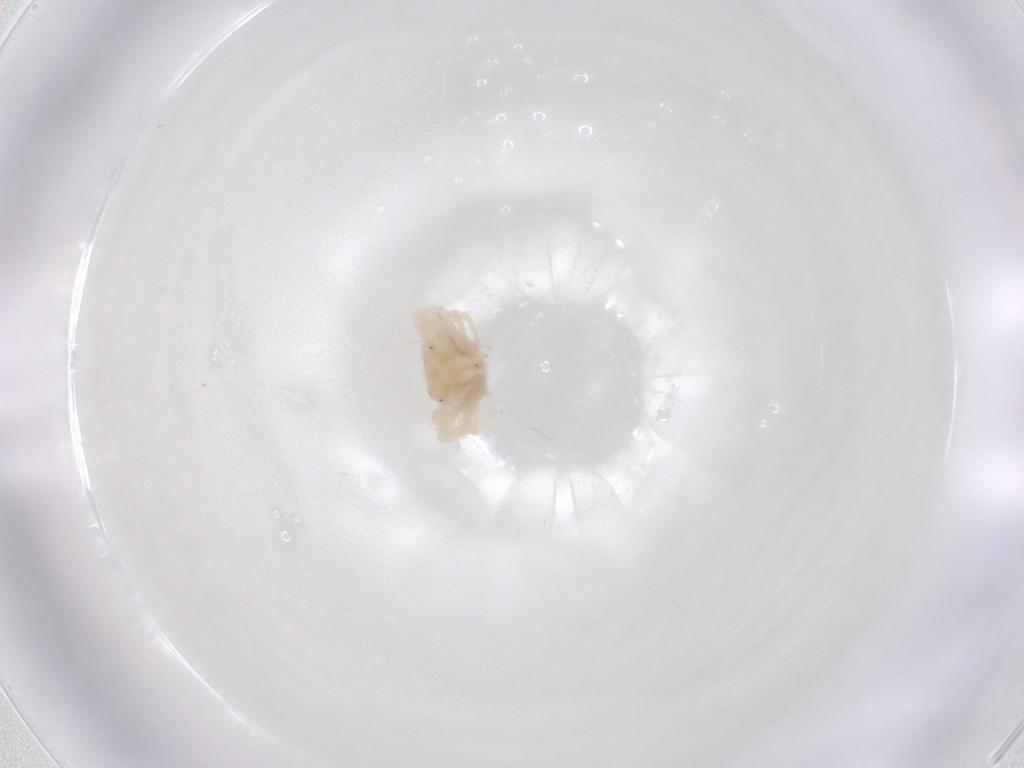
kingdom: Animalia
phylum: Arthropoda
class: Arachnida
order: Trombidiformes
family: Anystidae
